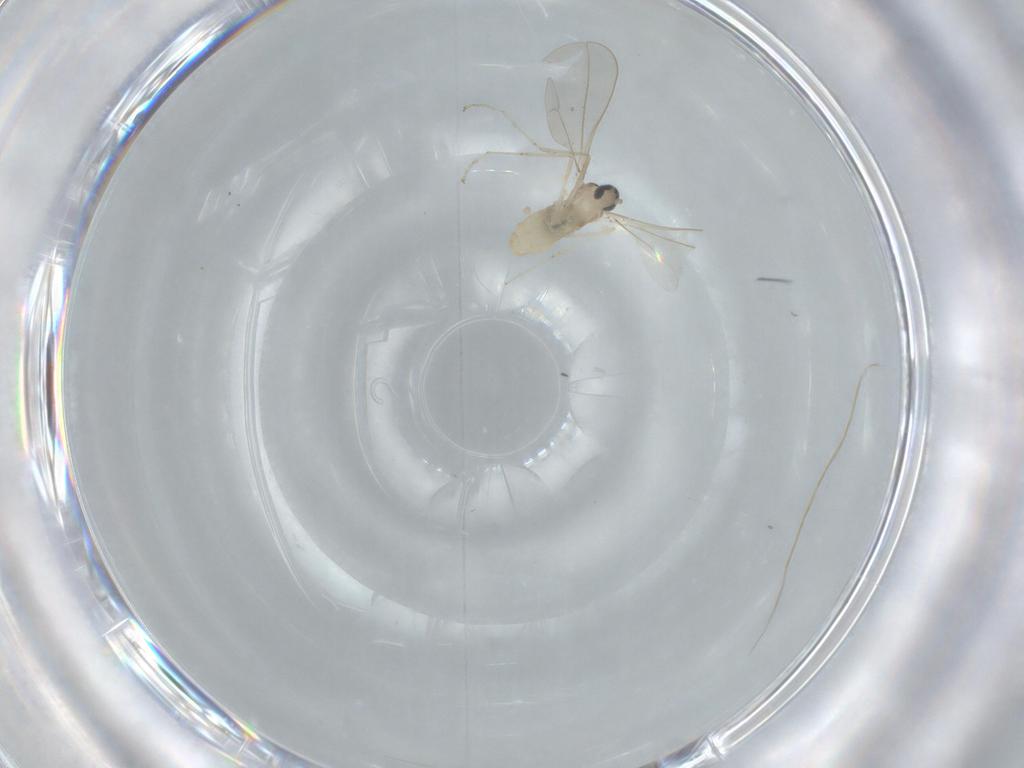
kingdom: Animalia
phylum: Arthropoda
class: Insecta
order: Diptera
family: Cecidomyiidae
